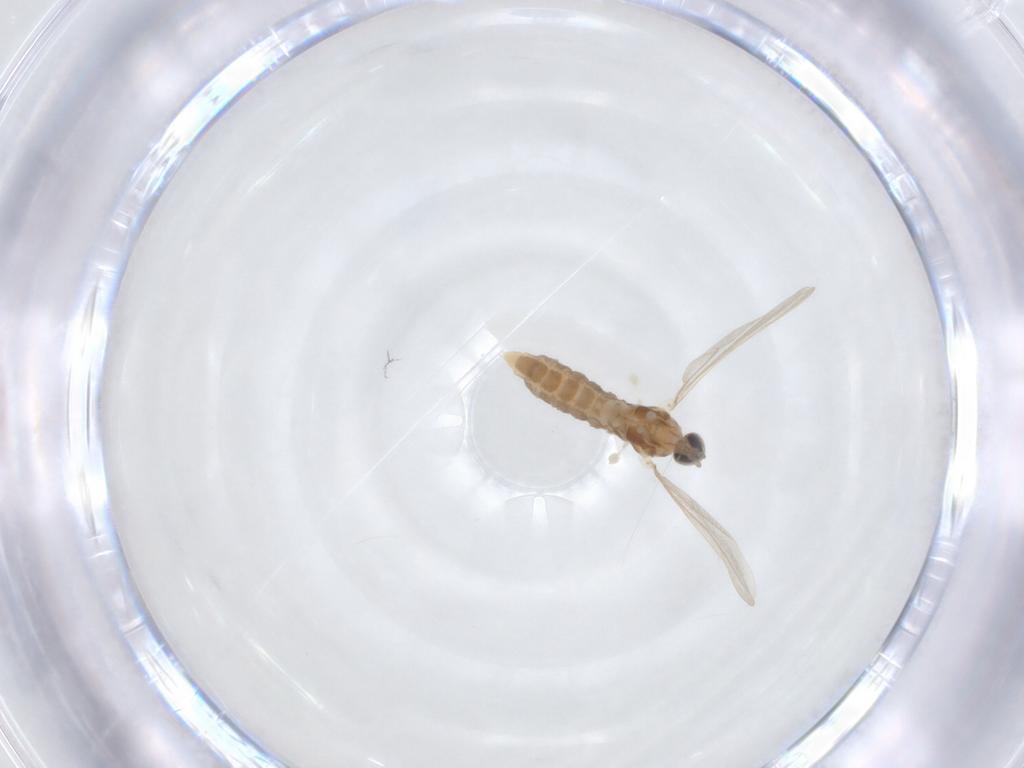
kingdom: Animalia
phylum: Arthropoda
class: Insecta
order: Diptera
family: Cecidomyiidae
